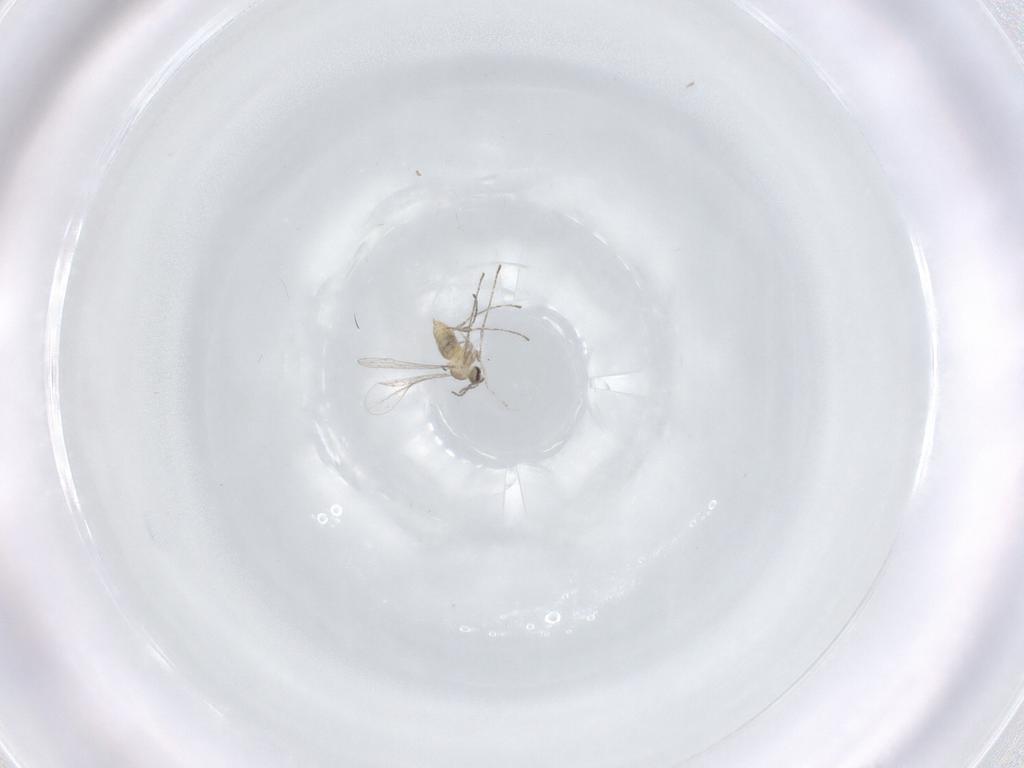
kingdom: Animalia
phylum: Arthropoda
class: Insecta
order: Diptera
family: Cecidomyiidae
